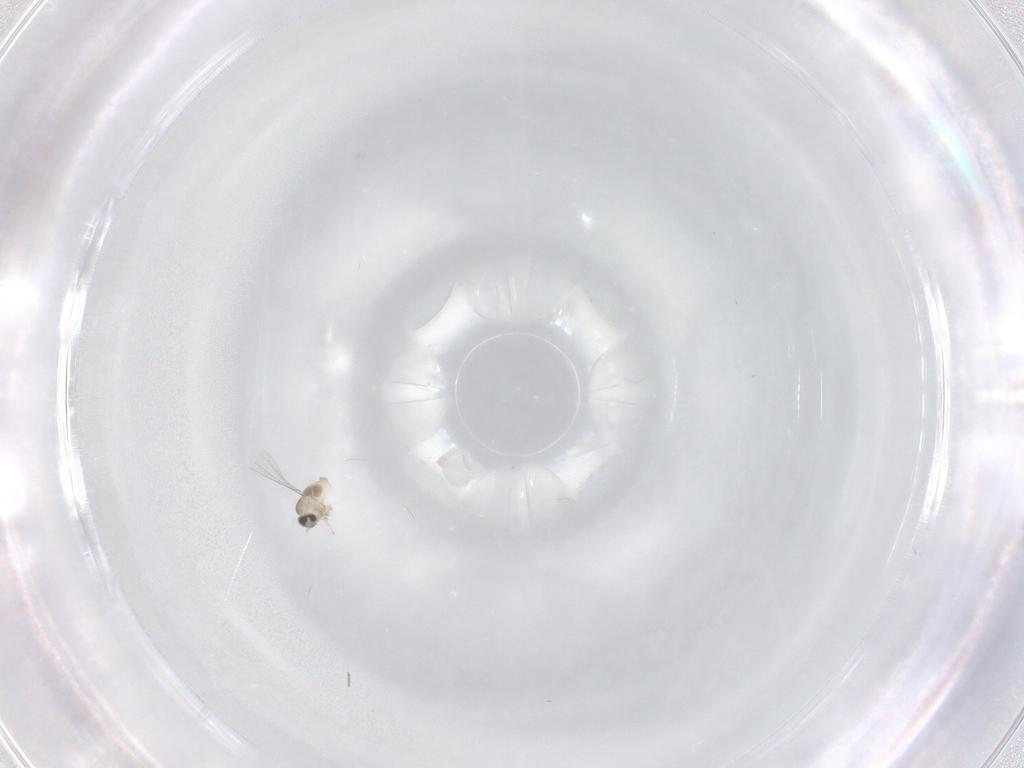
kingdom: Animalia
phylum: Arthropoda
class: Insecta
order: Diptera
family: Cecidomyiidae
